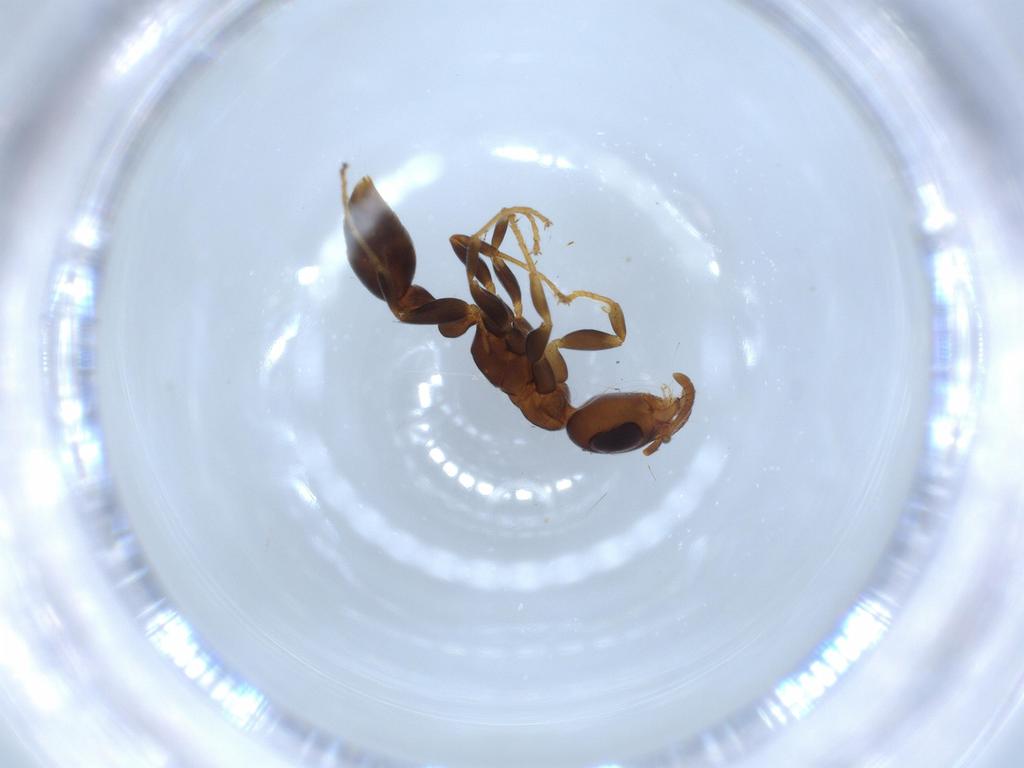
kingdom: Animalia
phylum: Arthropoda
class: Insecta
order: Hymenoptera
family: Formicidae
